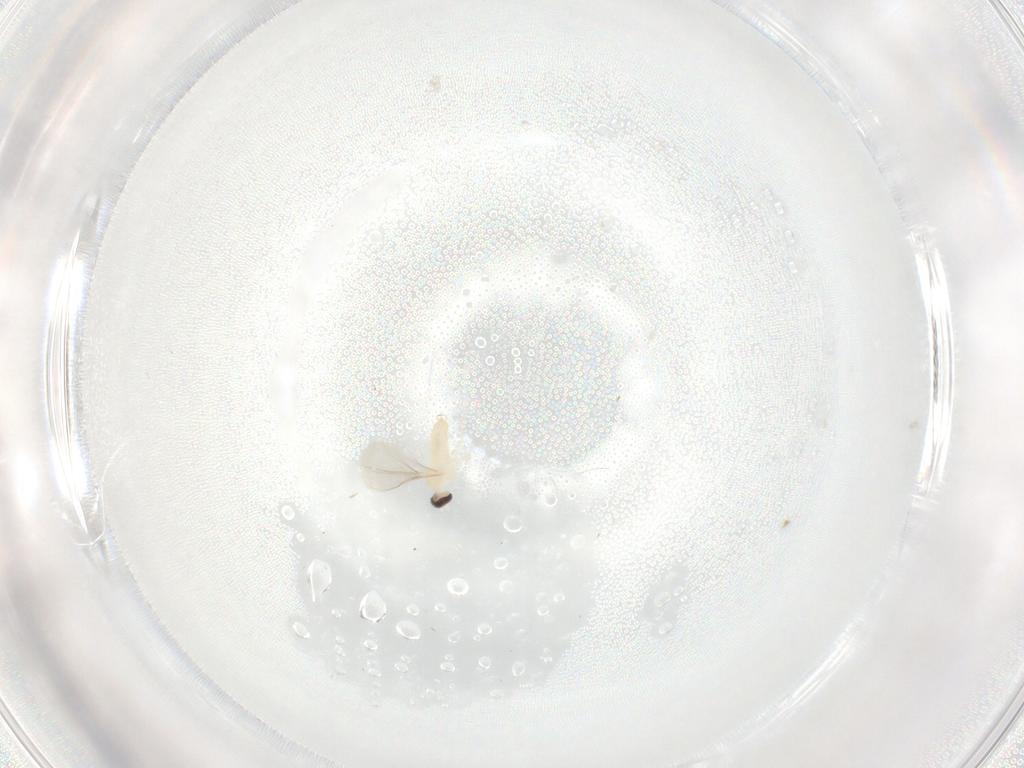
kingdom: Animalia
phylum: Arthropoda
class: Insecta
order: Diptera
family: Cecidomyiidae
